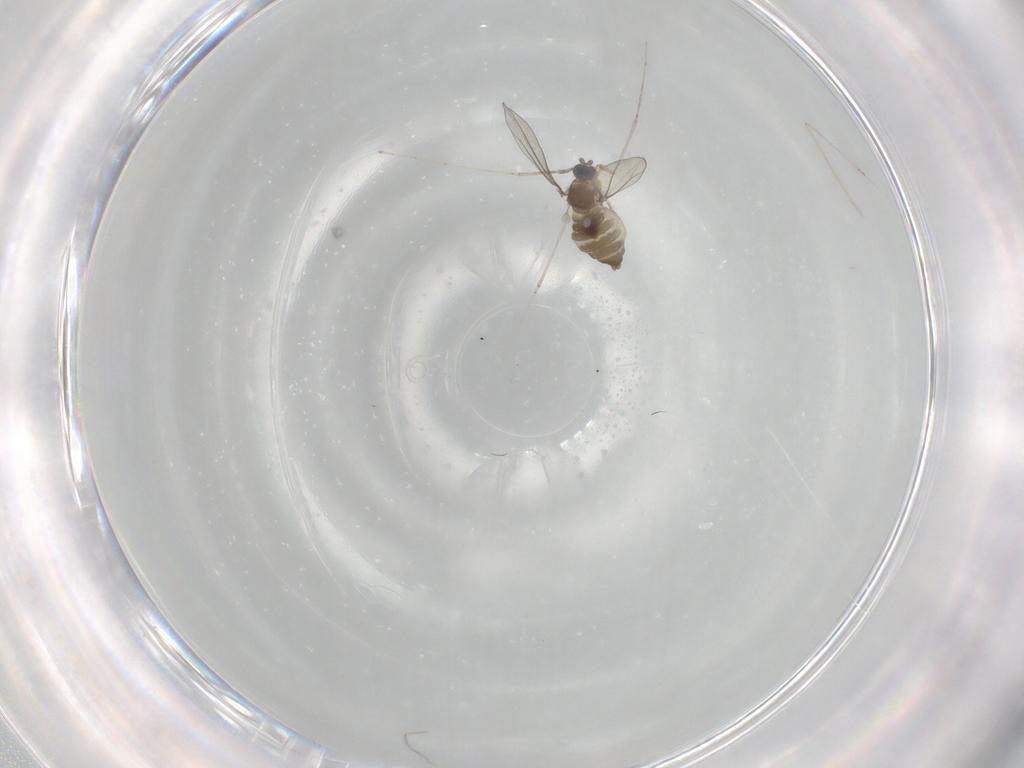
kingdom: Animalia
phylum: Arthropoda
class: Insecta
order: Diptera
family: Cecidomyiidae
